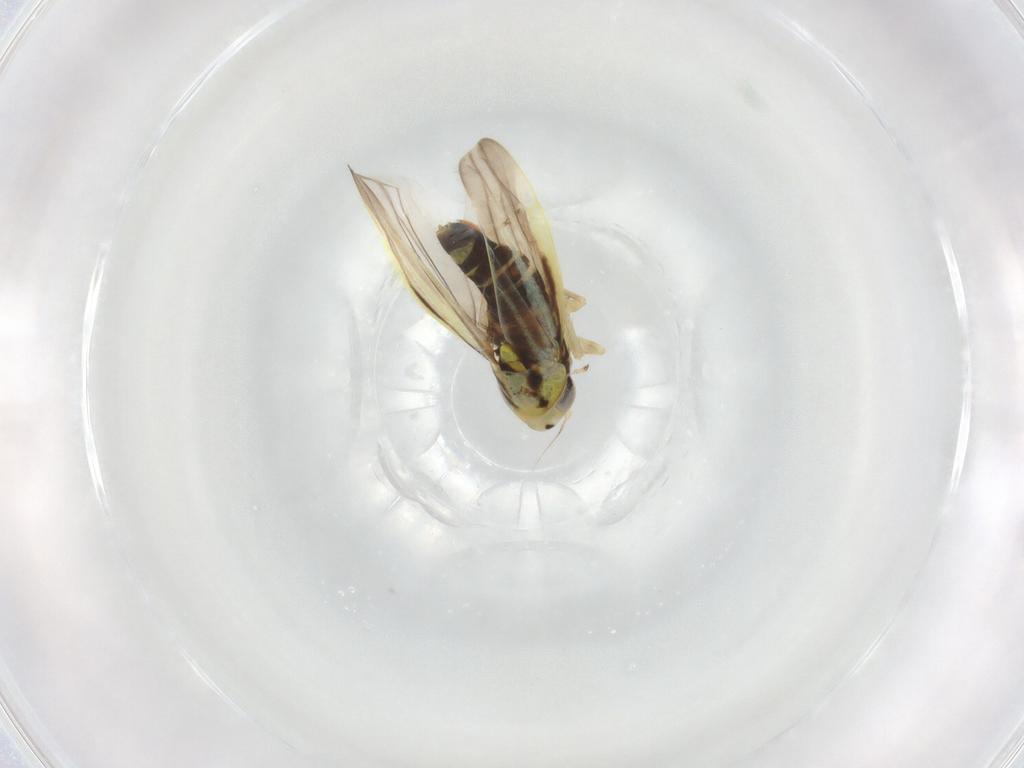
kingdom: Animalia
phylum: Arthropoda
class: Insecta
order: Hemiptera
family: Cicadellidae
